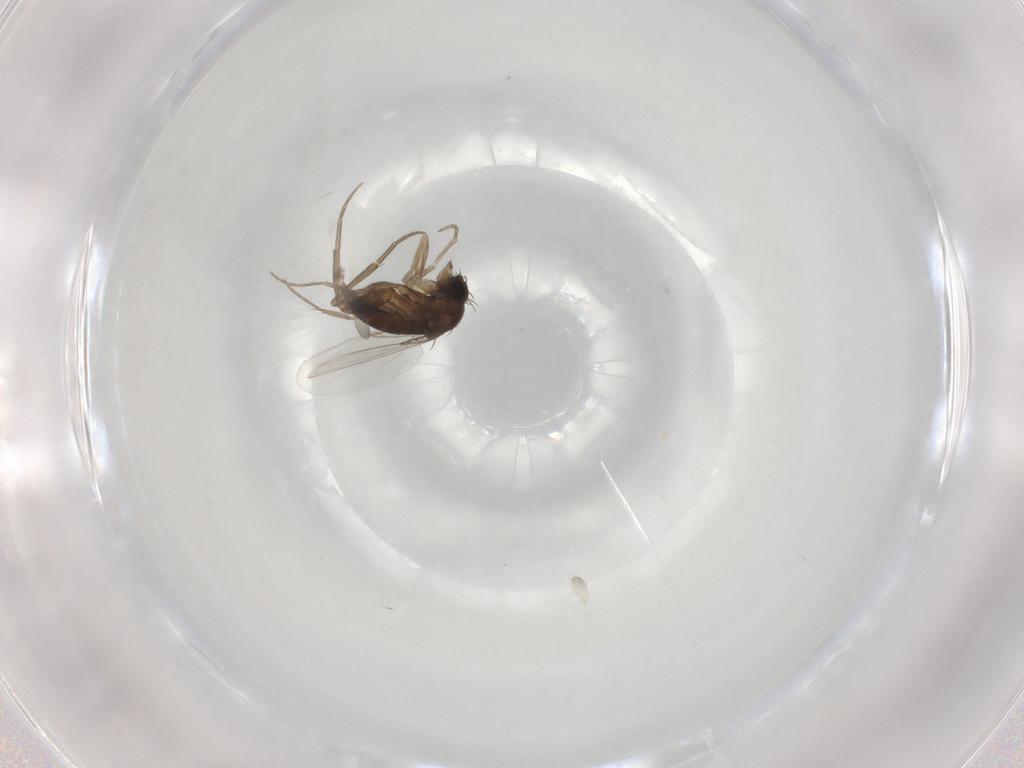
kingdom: Animalia
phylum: Arthropoda
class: Insecta
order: Diptera
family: Phoridae
